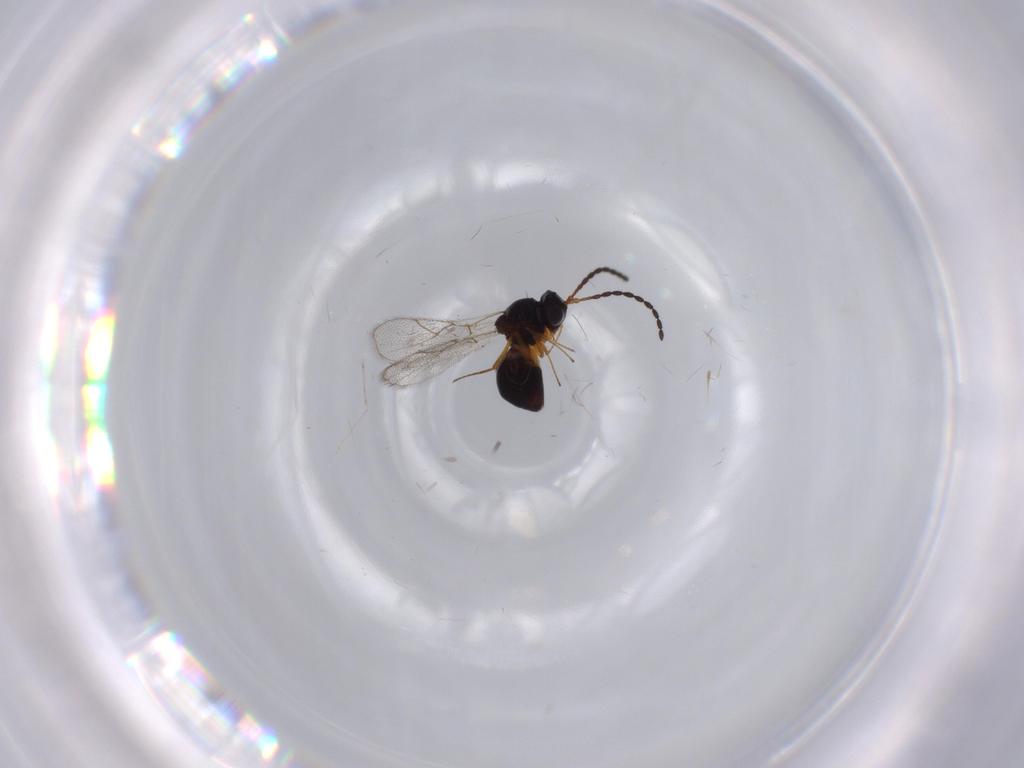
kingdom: Animalia
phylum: Arthropoda
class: Insecta
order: Hymenoptera
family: Figitidae
